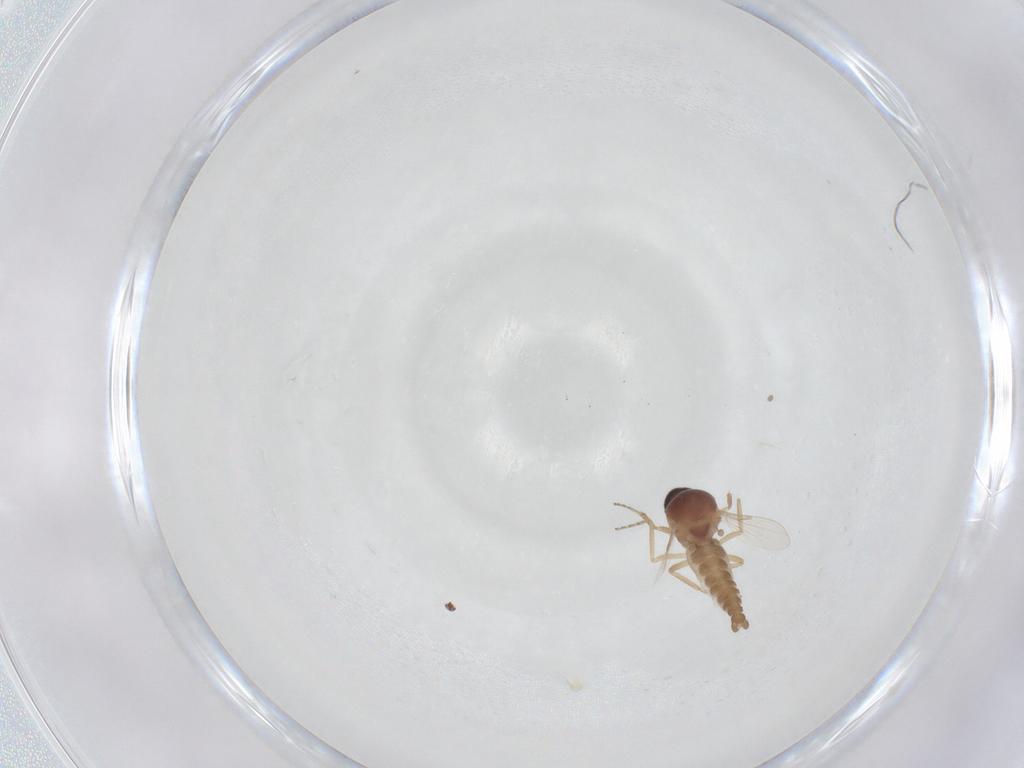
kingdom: Animalia
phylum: Arthropoda
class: Insecta
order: Diptera
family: Ceratopogonidae
